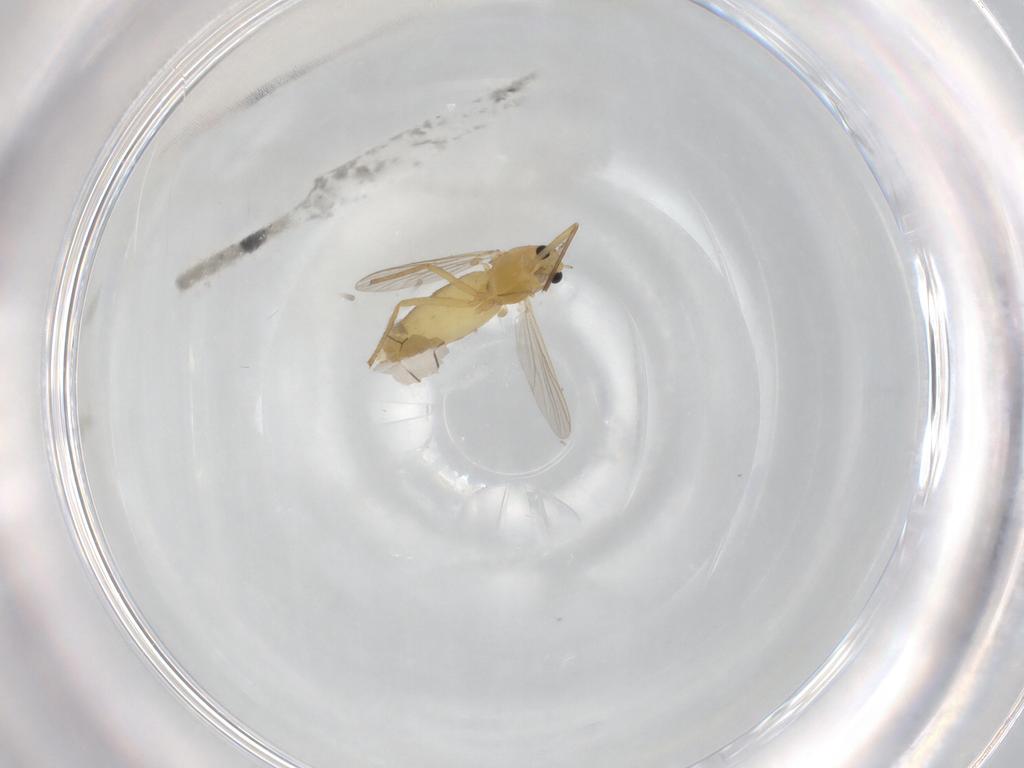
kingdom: Animalia
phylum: Arthropoda
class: Insecta
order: Diptera
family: Chironomidae
